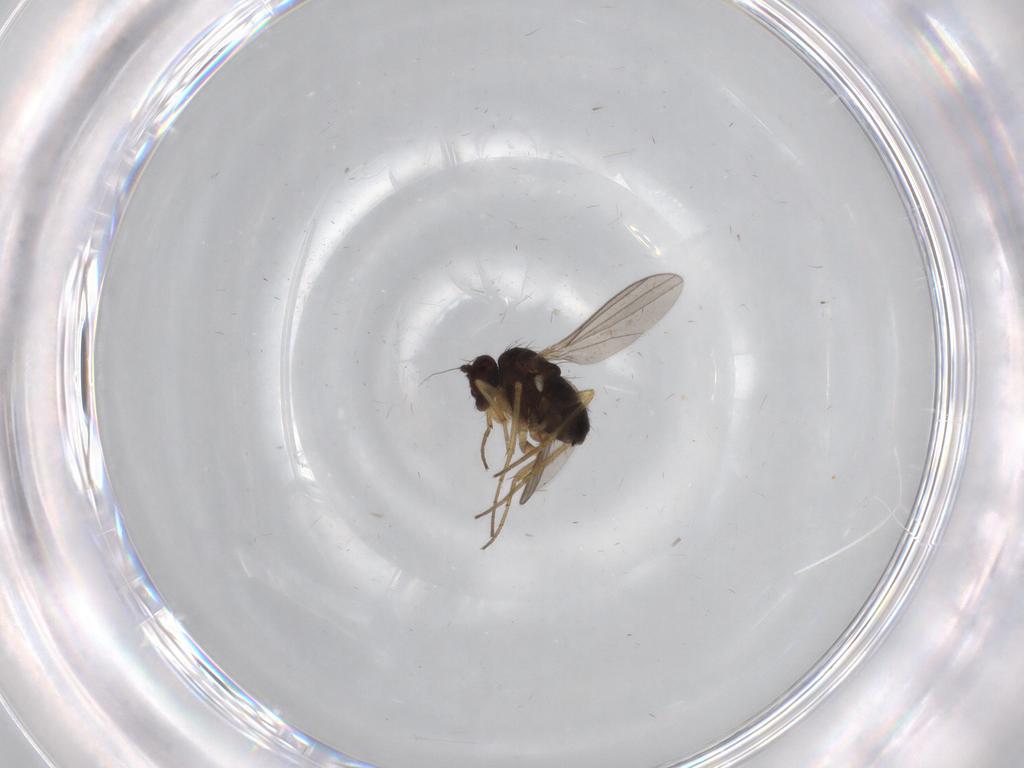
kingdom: Animalia
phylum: Arthropoda
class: Insecta
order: Diptera
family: Dolichopodidae
